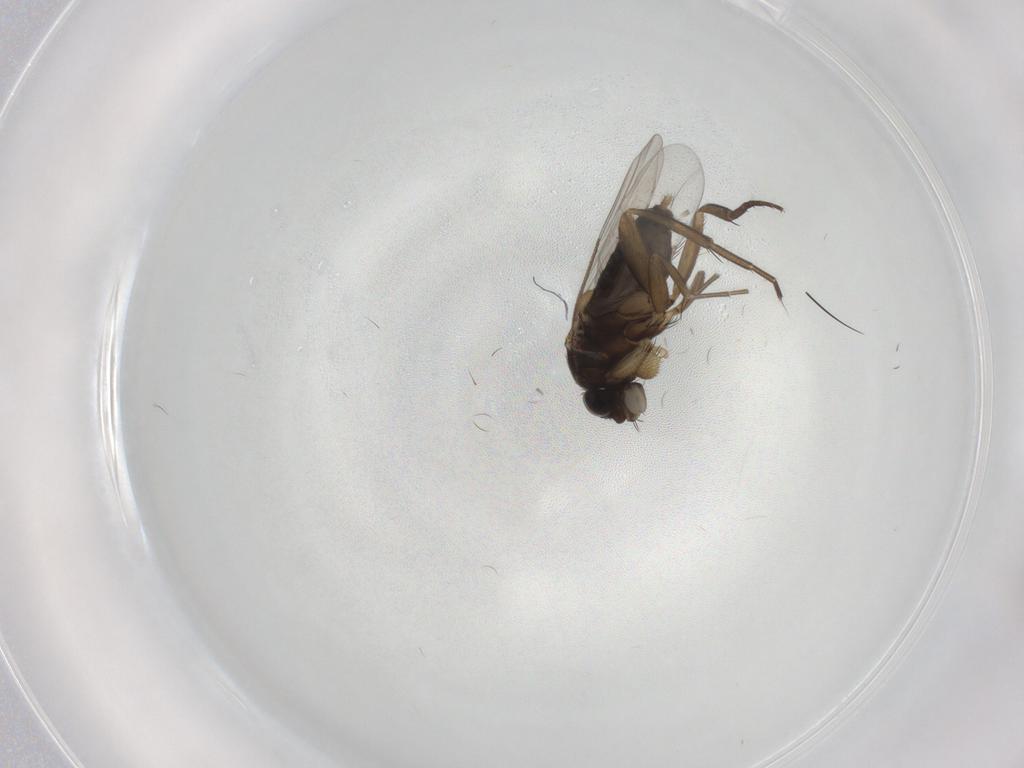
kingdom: Animalia
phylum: Arthropoda
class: Insecta
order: Diptera
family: Phoridae
